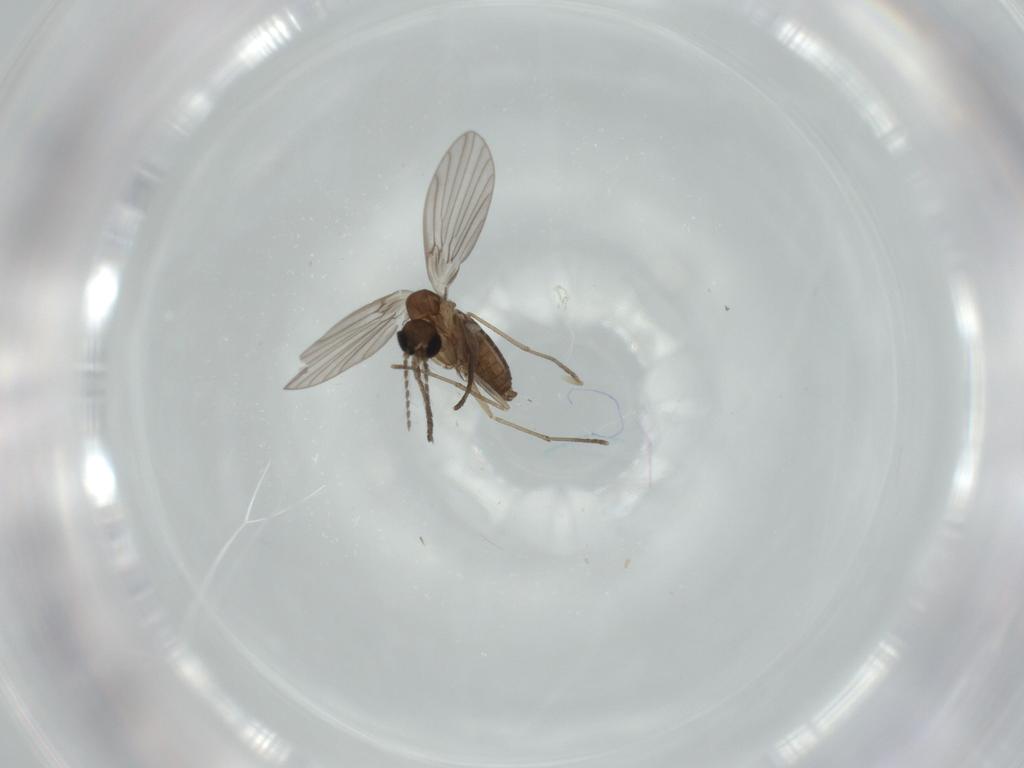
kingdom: Animalia
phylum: Arthropoda
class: Insecta
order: Diptera
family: Psychodidae
